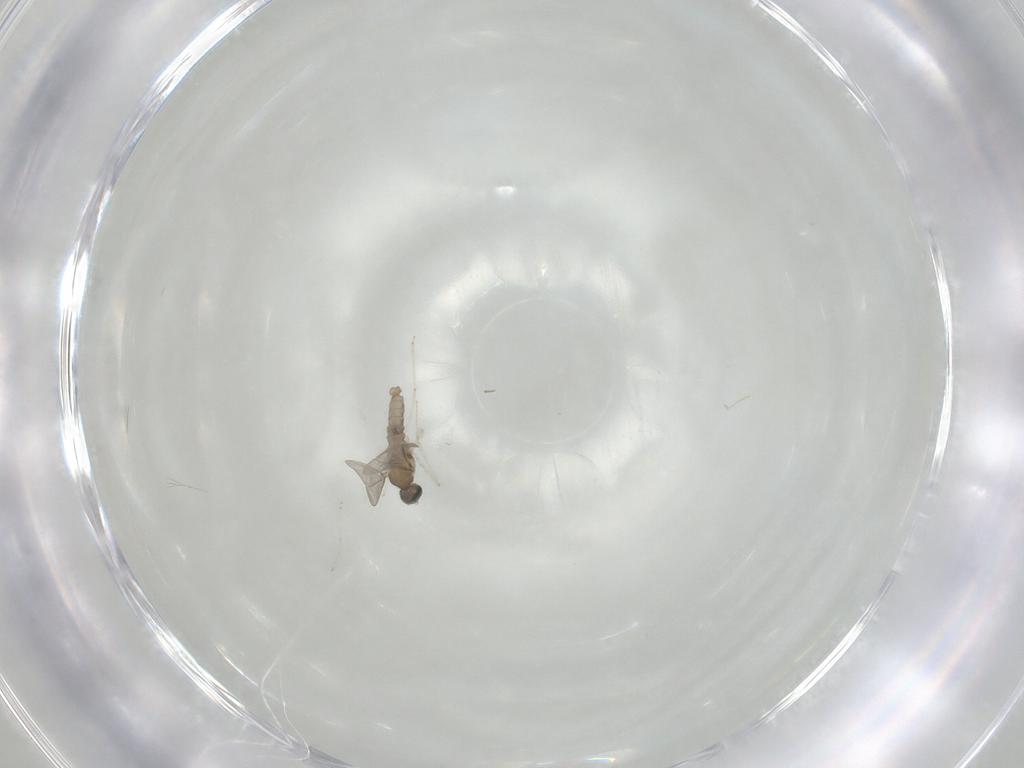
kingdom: Animalia
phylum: Arthropoda
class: Insecta
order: Diptera
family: Cecidomyiidae
